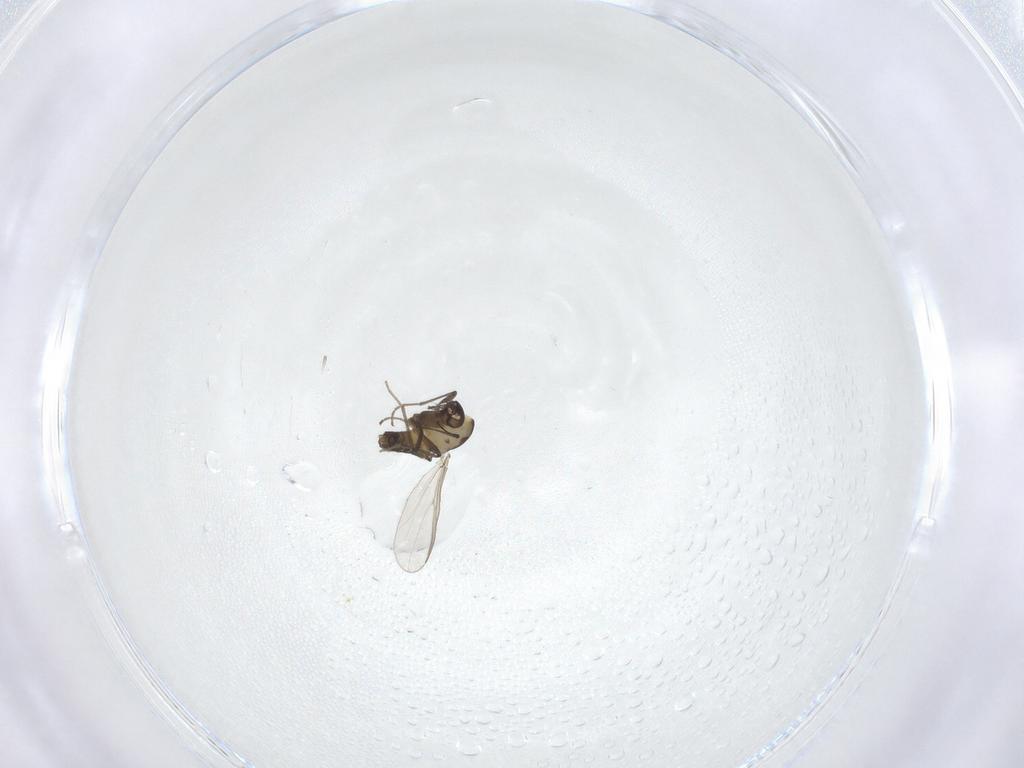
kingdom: Animalia
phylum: Arthropoda
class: Insecta
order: Diptera
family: Chironomidae
